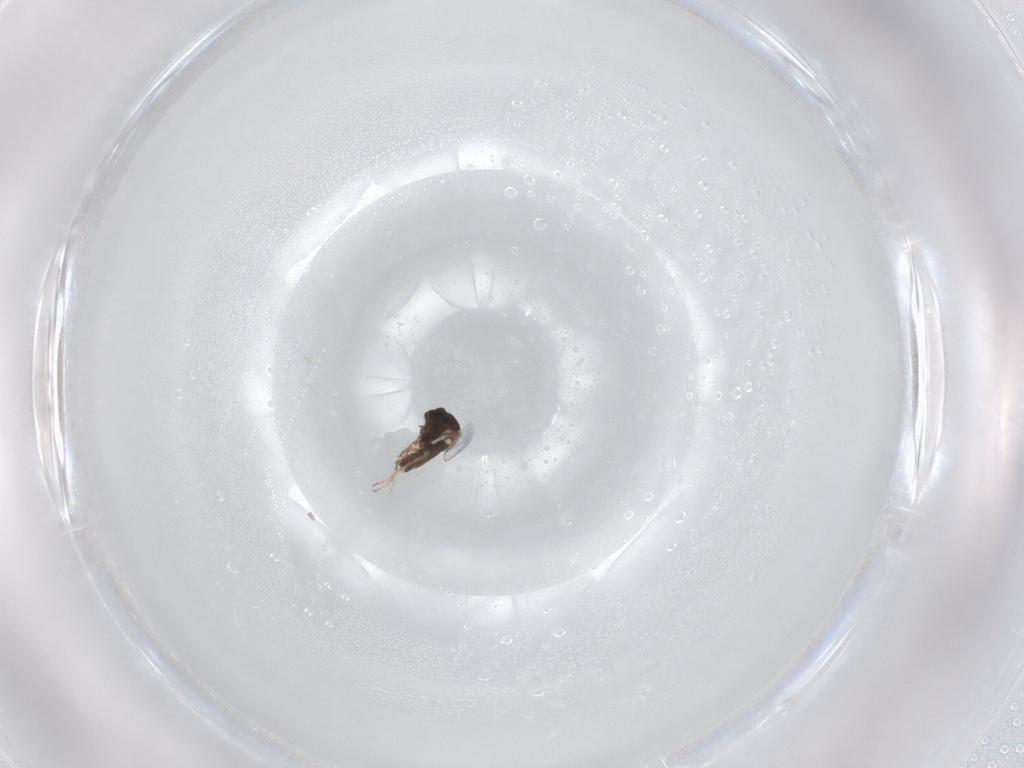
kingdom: Animalia
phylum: Arthropoda
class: Insecta
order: Diptera
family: Ceratopogonidae
